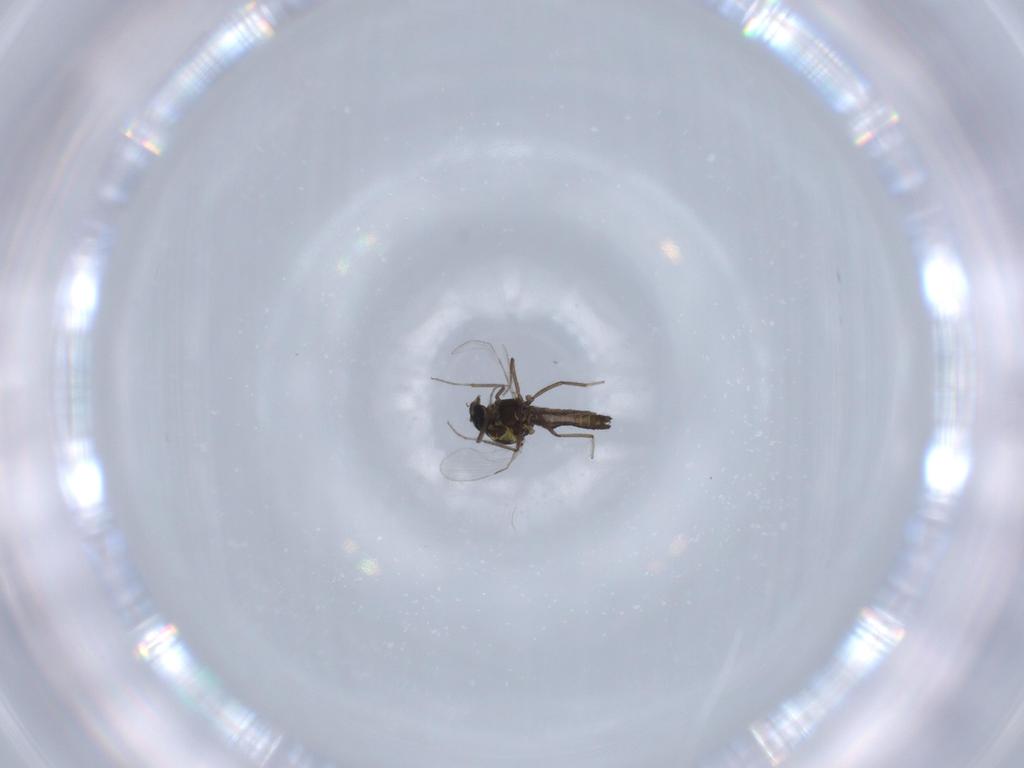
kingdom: Animalia
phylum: Arthropoda
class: Insecta
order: Diptera
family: Ceratopogonidae
